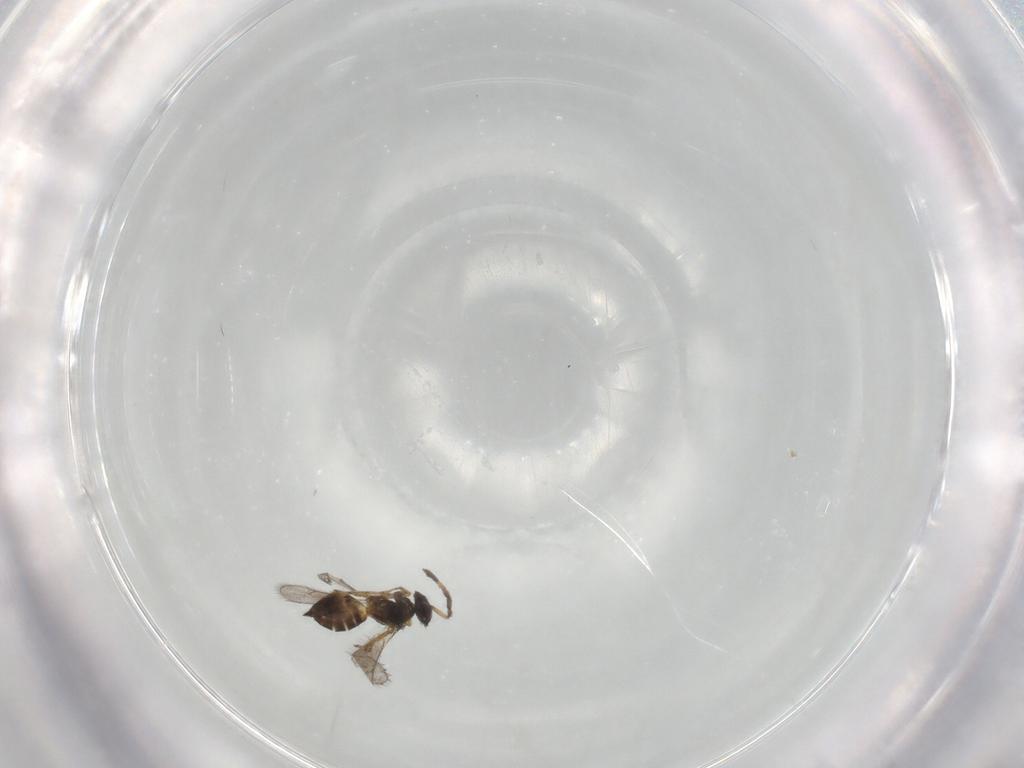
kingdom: Animalia
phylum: Arthropoda
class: Insecta
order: Hymenoptera
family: Eulophidae
